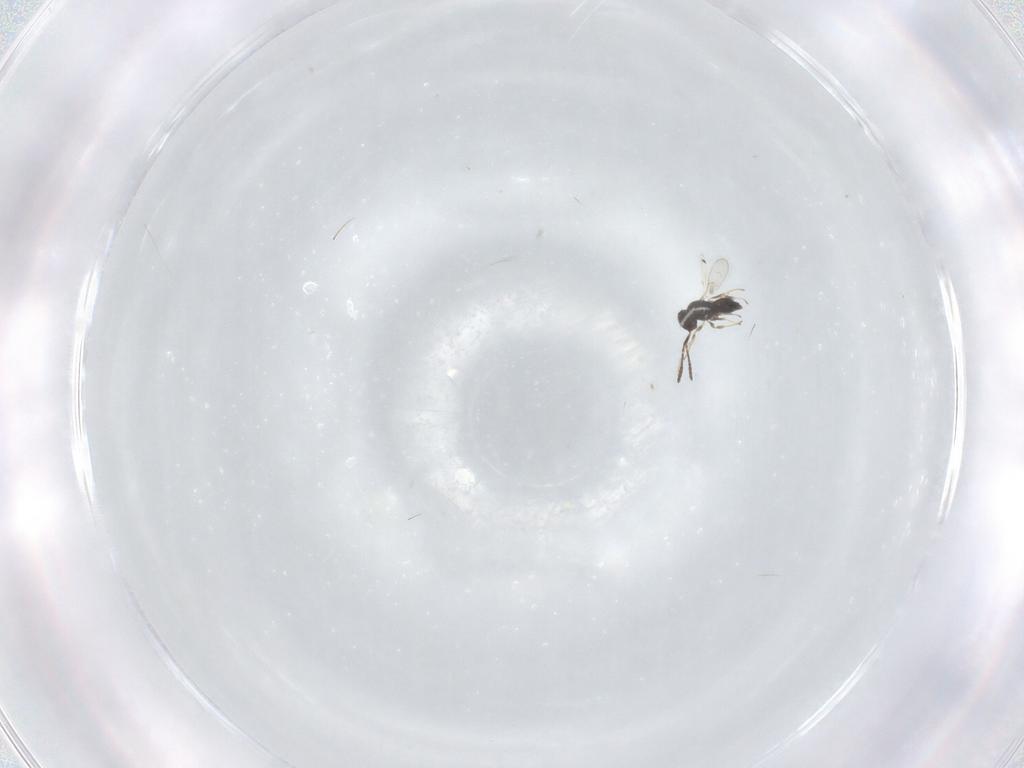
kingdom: Animalia
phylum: Arthropoda
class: Insecta
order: Hymenoptera
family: Scelionidae
